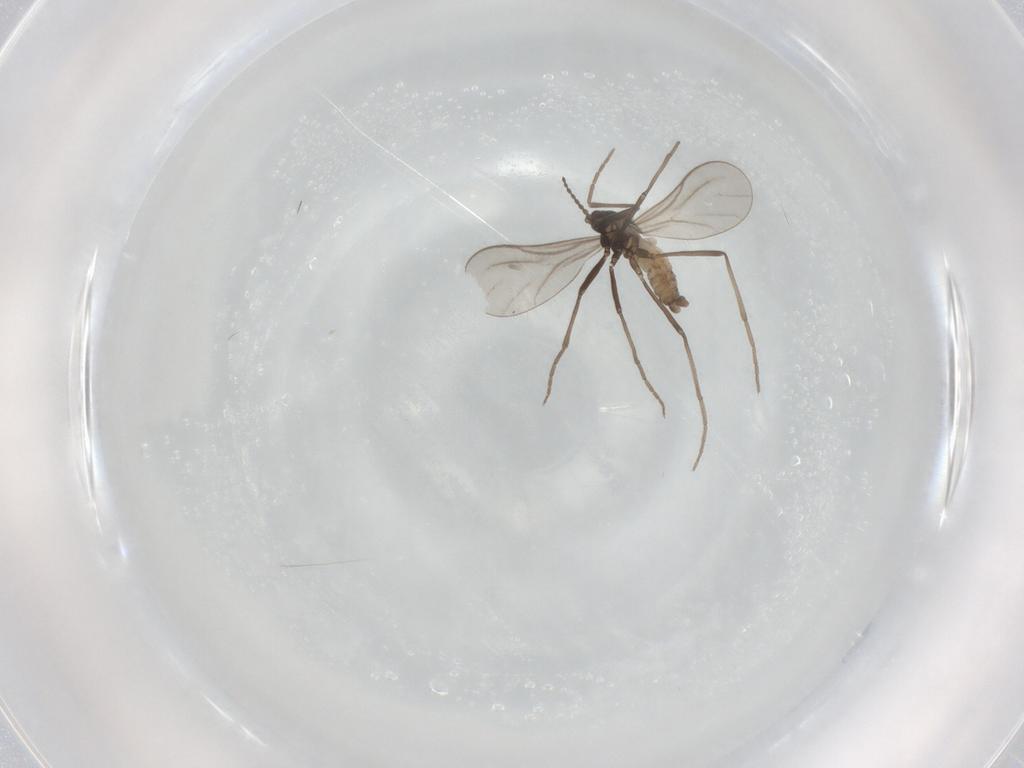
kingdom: Animalia
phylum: Arthropoda
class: Insecta
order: Diptera
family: Cecidomyiidae
